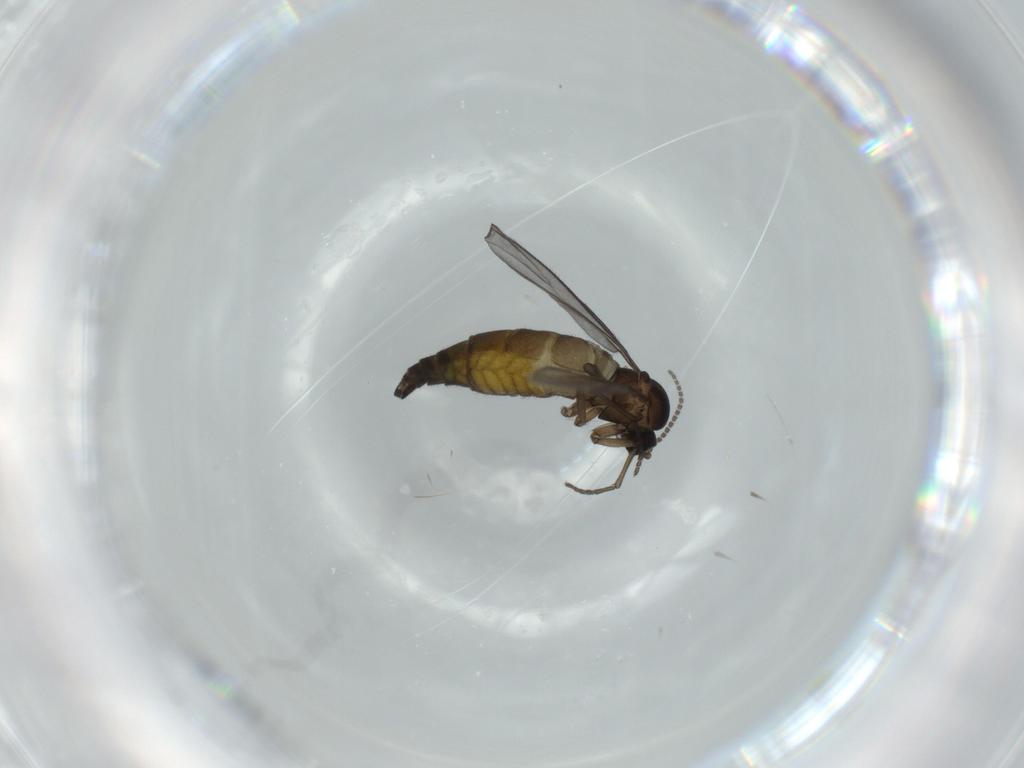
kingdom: Animalia
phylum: Arthropoda
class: Insecta
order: Diptera
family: Sciaridae
